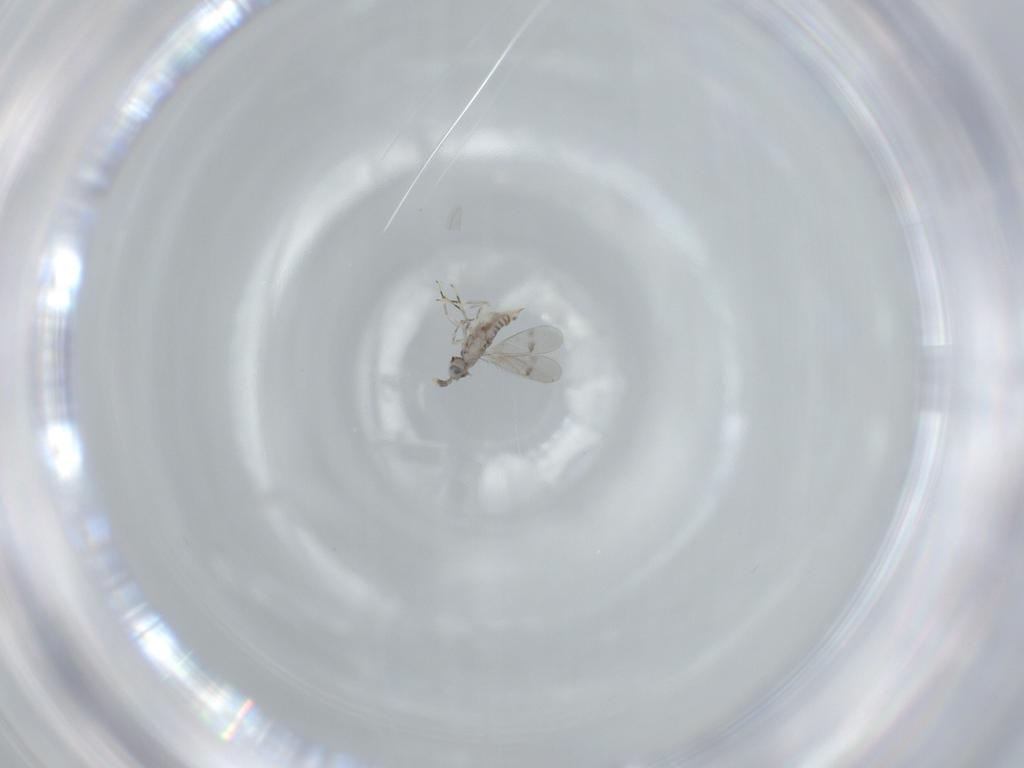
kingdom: Animalia
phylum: Arthropoda
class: Insecta
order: Hymenoptera
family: Aphelinidae
